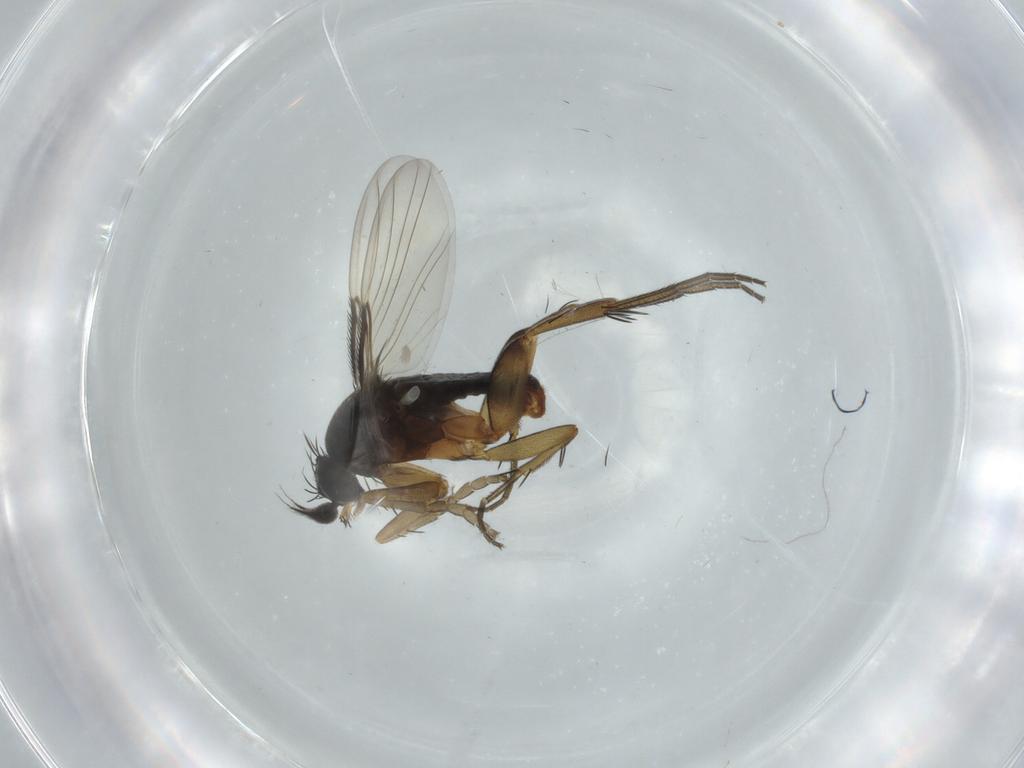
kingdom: Animalia
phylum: Arthropoda
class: Insecta
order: Diptera
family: Phoridae
